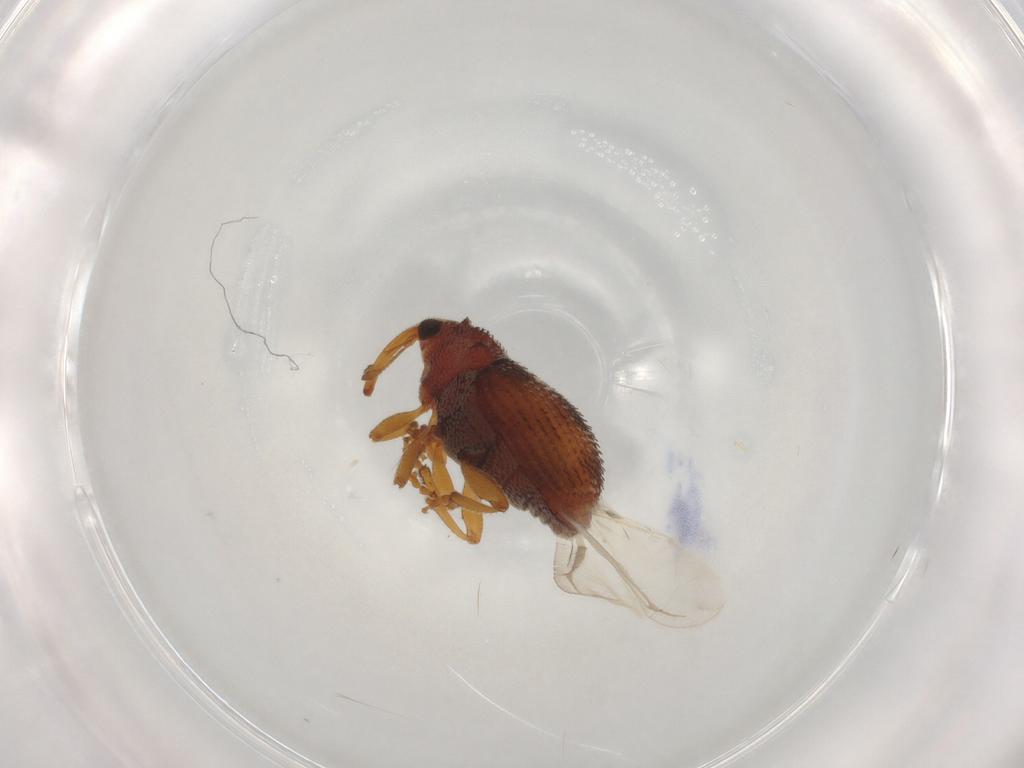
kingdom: Animalia
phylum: Arthropoda
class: Insecta
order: Coleoptera
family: Curculionidae
